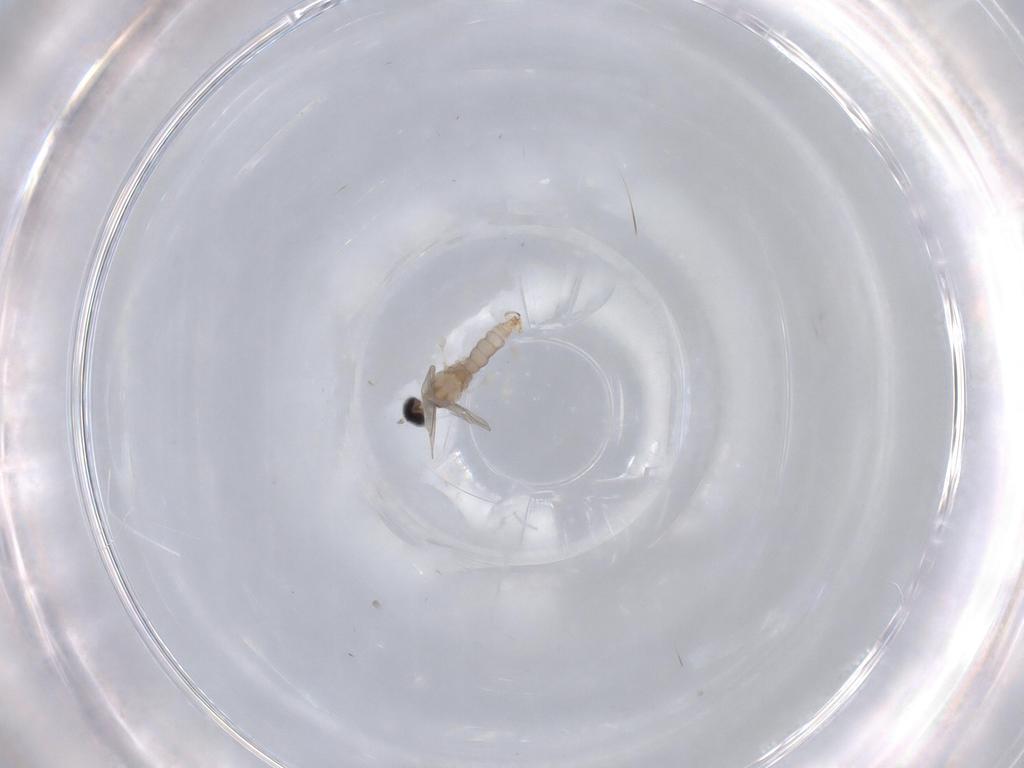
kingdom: Animalia
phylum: Arthropoda
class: Insecta
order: Diptera
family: Cecidomyiidae
